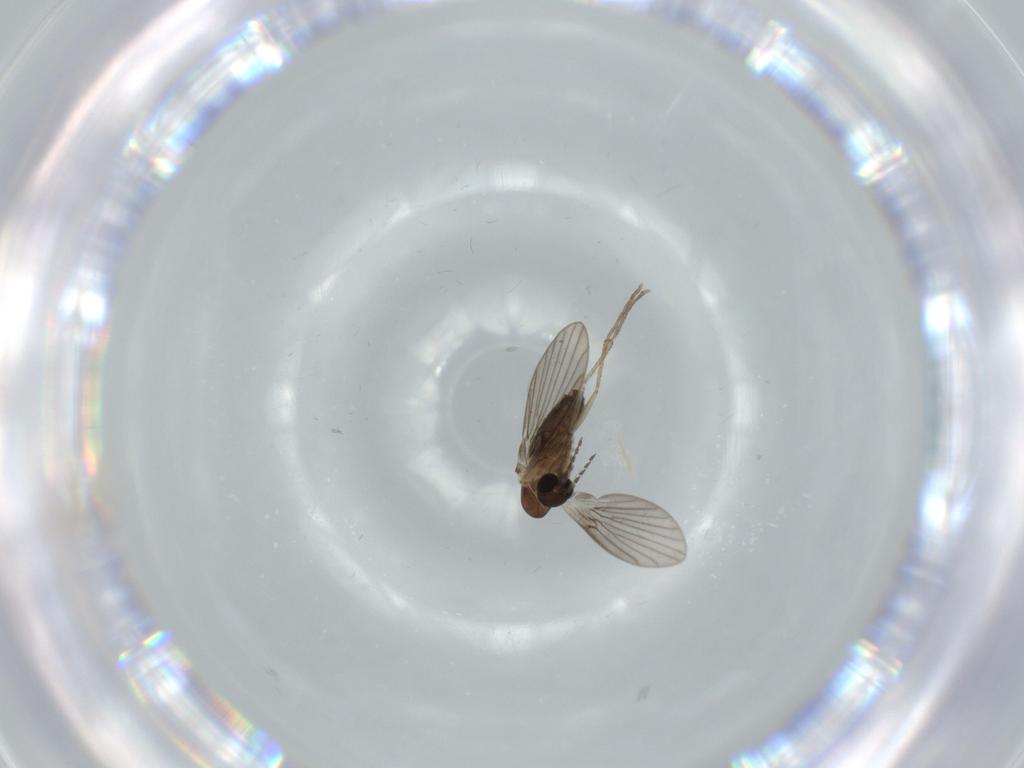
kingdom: Animalia
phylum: Arthropoda
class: Insecta
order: Diptera
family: Cecidomyiidae
